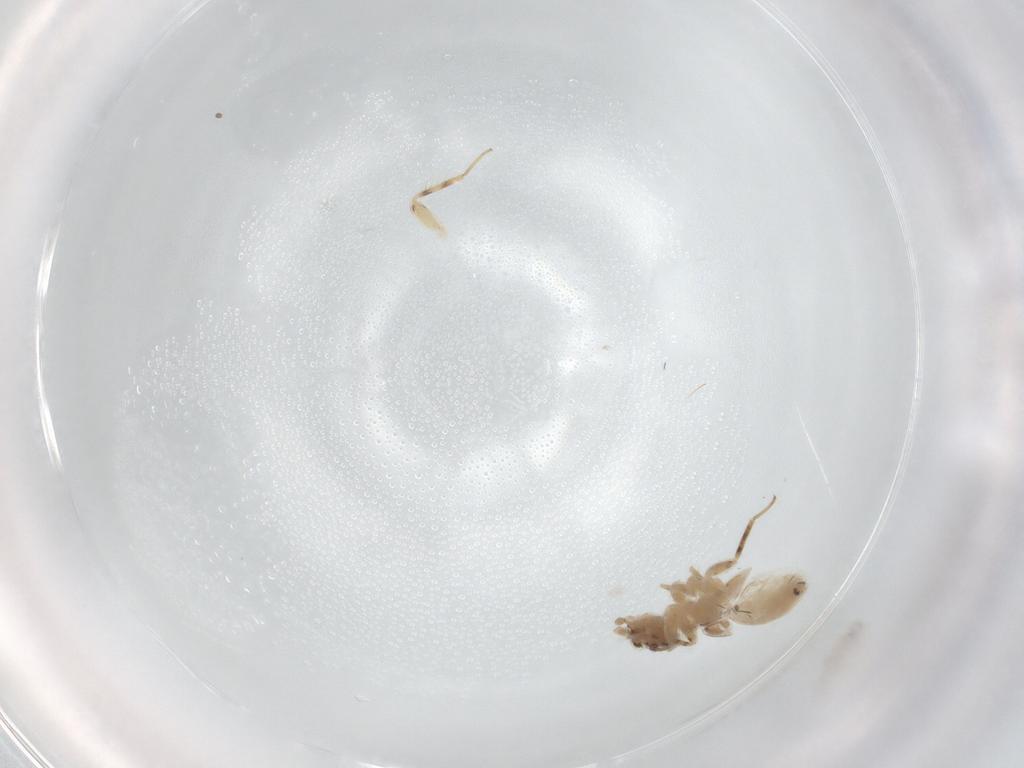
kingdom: Animalia
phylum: Arthropoda
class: Insecta
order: Psocodea
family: Lepidopsocidae
